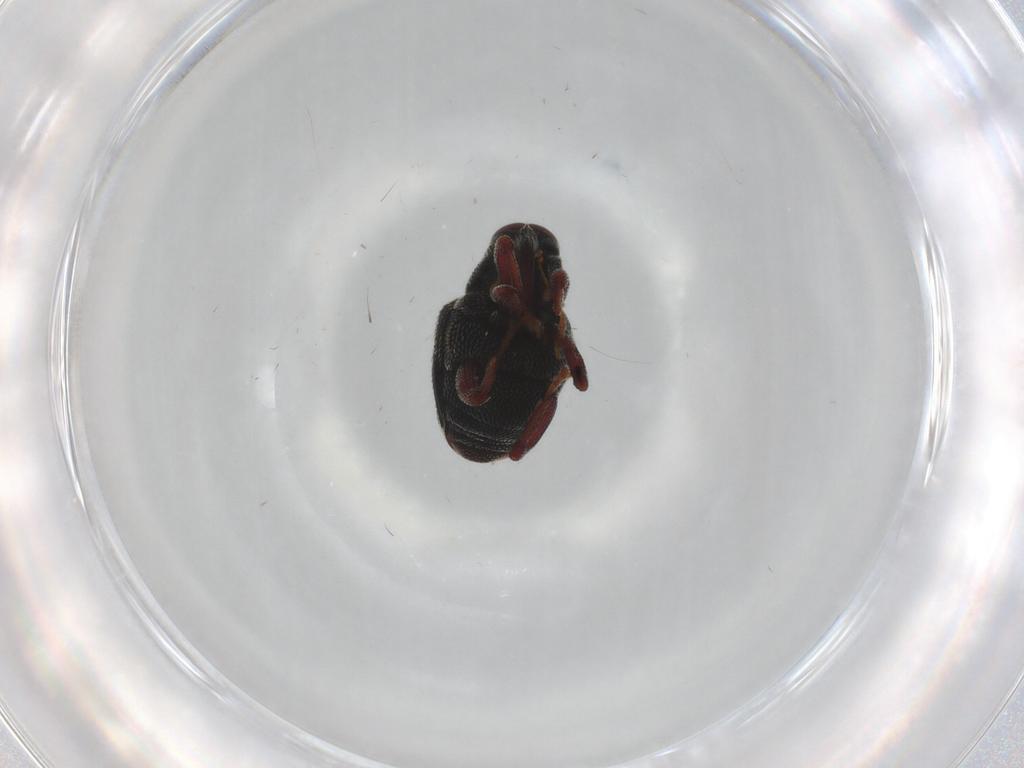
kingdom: Animalia
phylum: Arthropoda
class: Insecta
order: Coleoptera
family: Curculionidae
